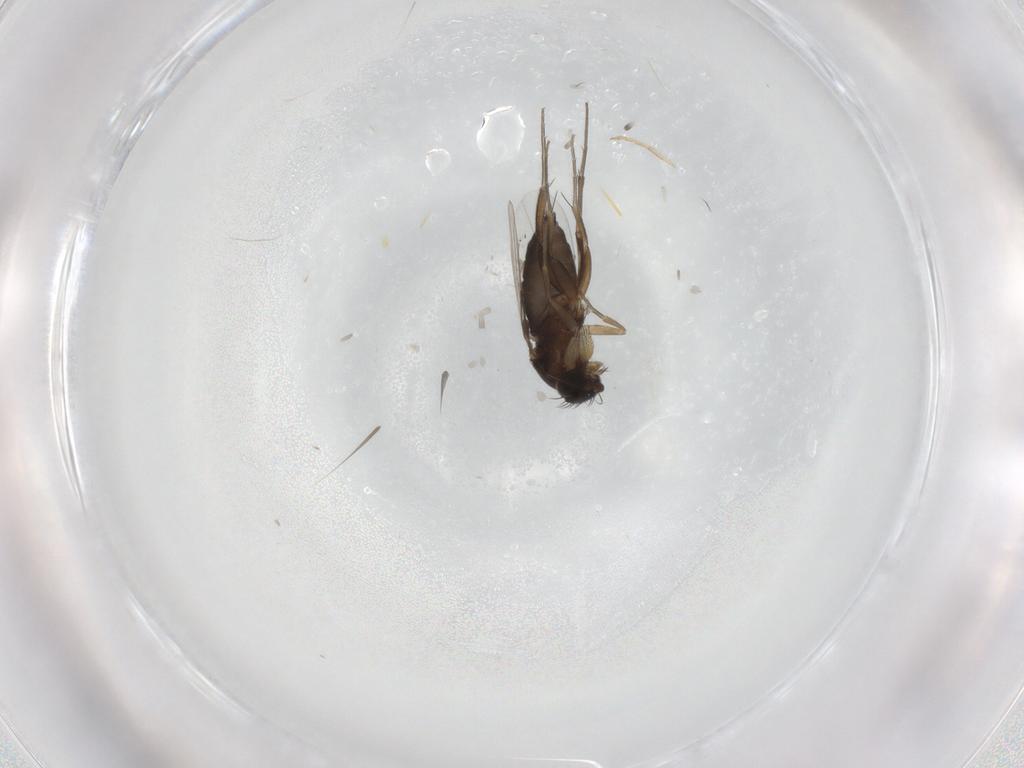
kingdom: Animalia
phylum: Arthropoda
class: Insecta
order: Diptera
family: Phoridae
